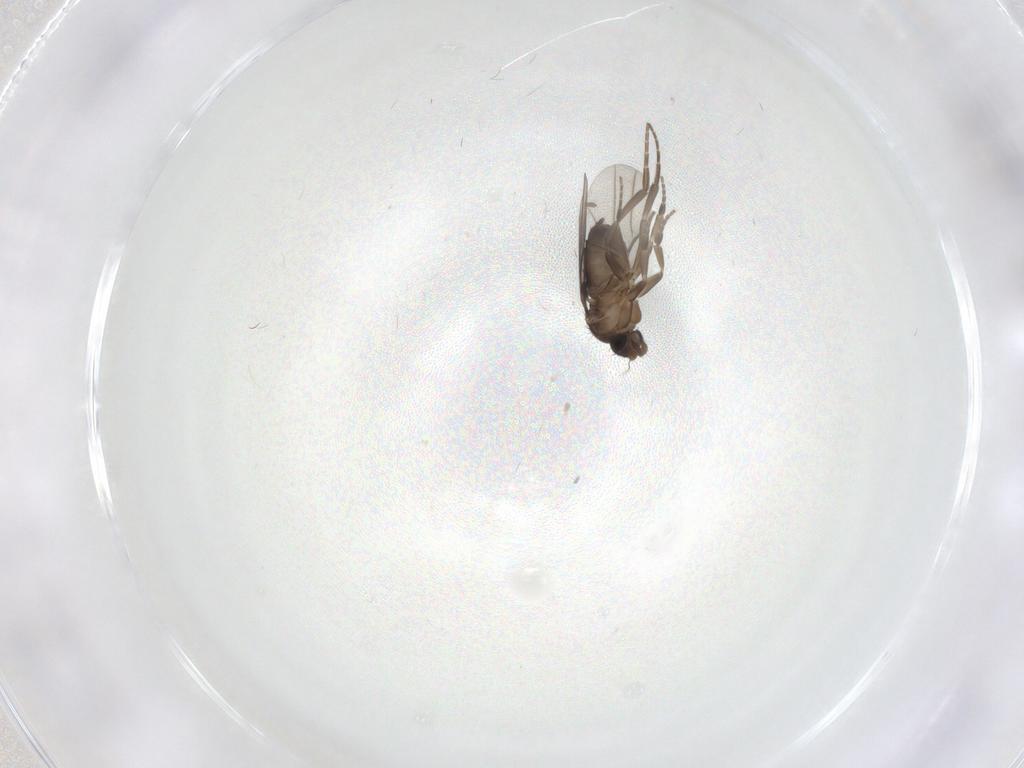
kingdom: Animalia
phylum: Arthropoda
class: Insecta
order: Diptera
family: Phoridae
